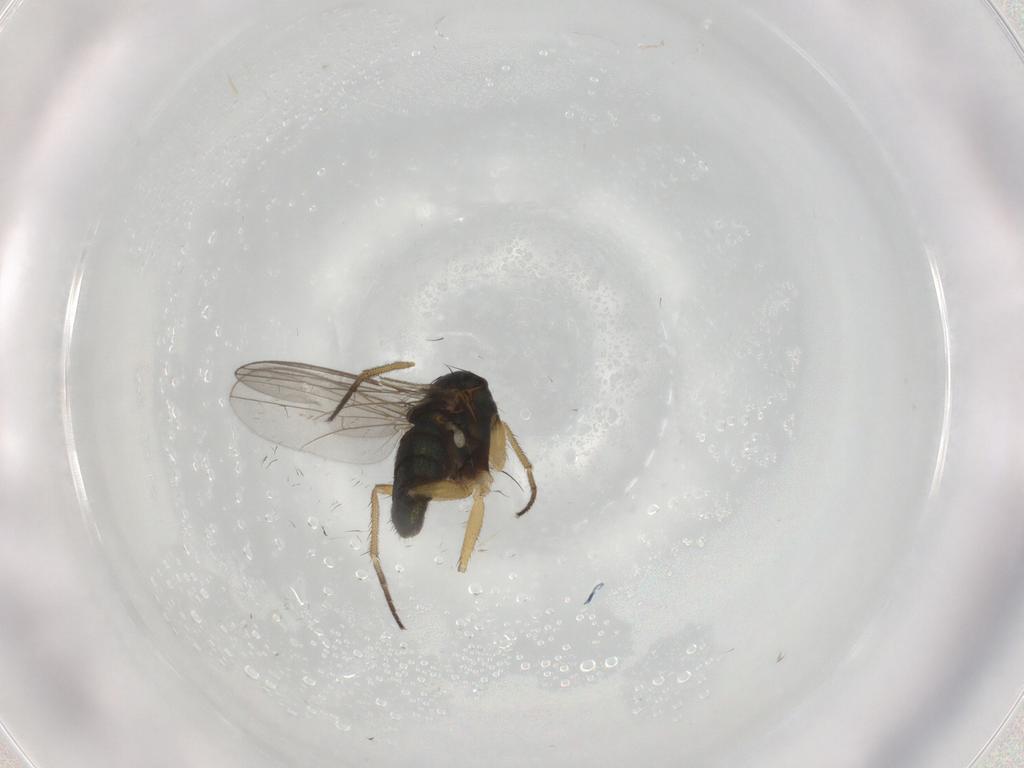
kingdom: Animalia
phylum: Arthropoda
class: Insecta
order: Diptera
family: Dolichopodidae
